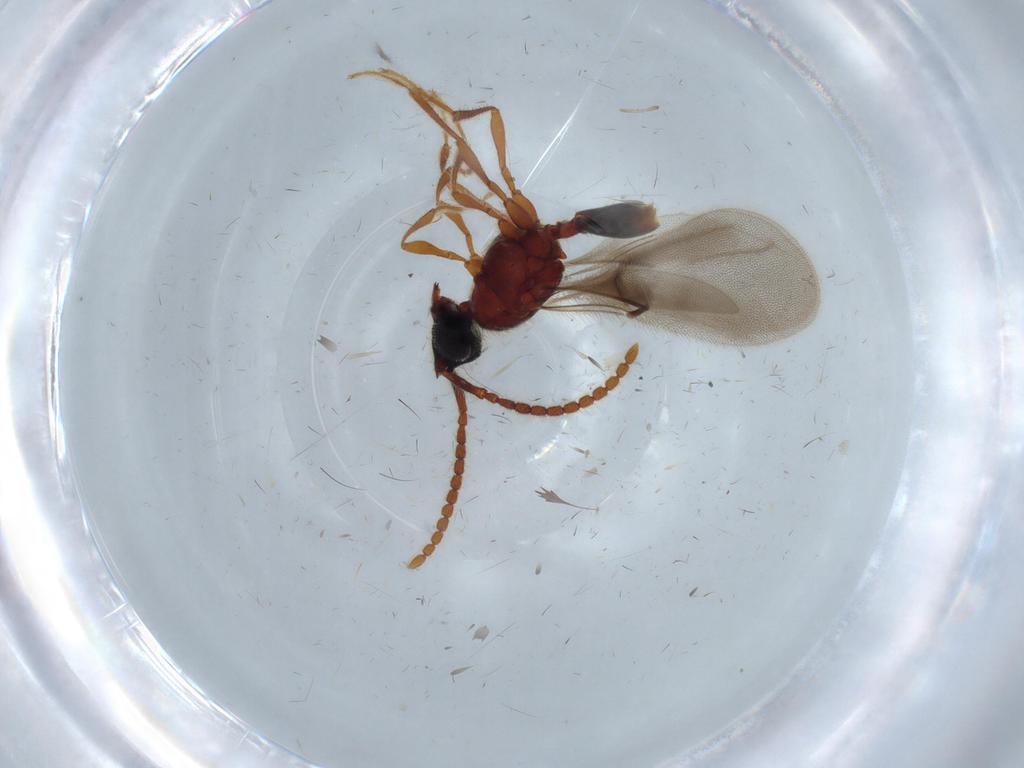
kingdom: Animalia
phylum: Arthropoda
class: Insecta
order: Hymenoptera
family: Diapriidae
